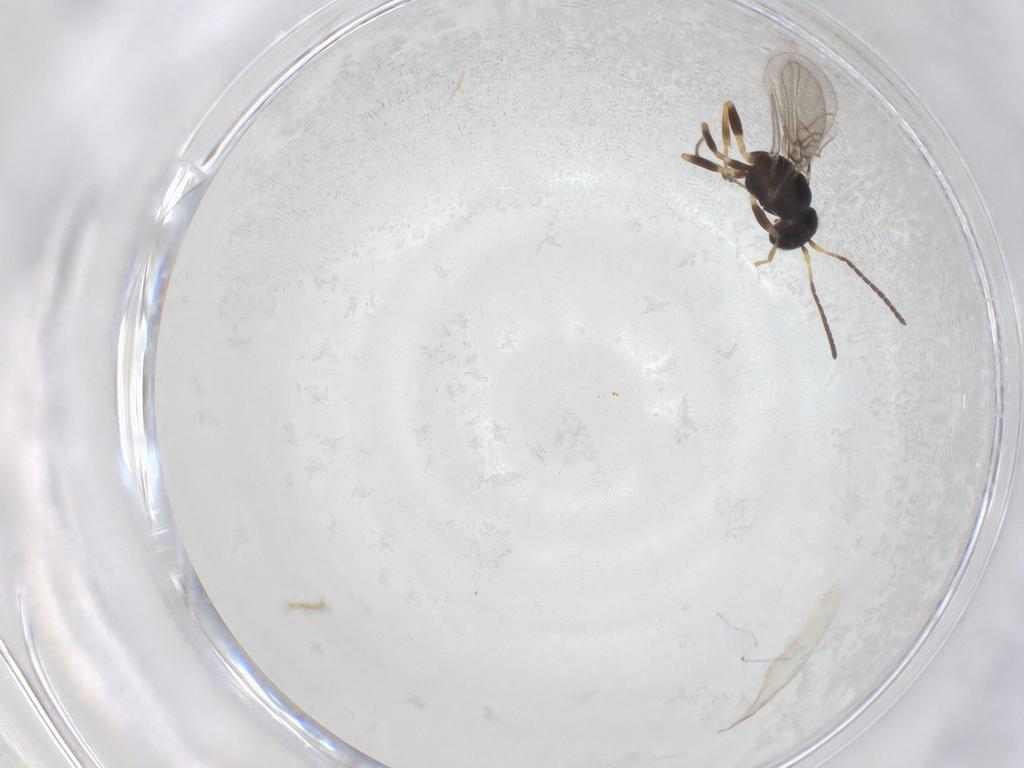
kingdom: Animalia
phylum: Arthropoda
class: Insecta
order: Hymenoptera
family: Cynipidae
